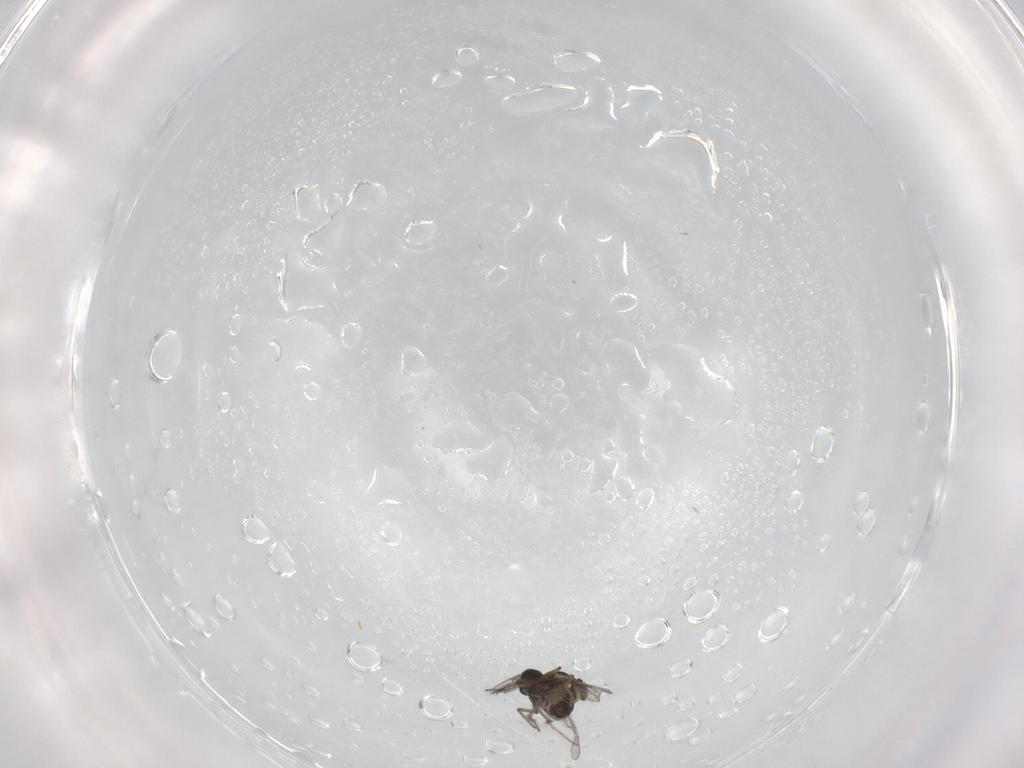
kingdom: Animalia
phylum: Arthropoda
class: Insecta
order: Diptera
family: Ceratopogonidae
